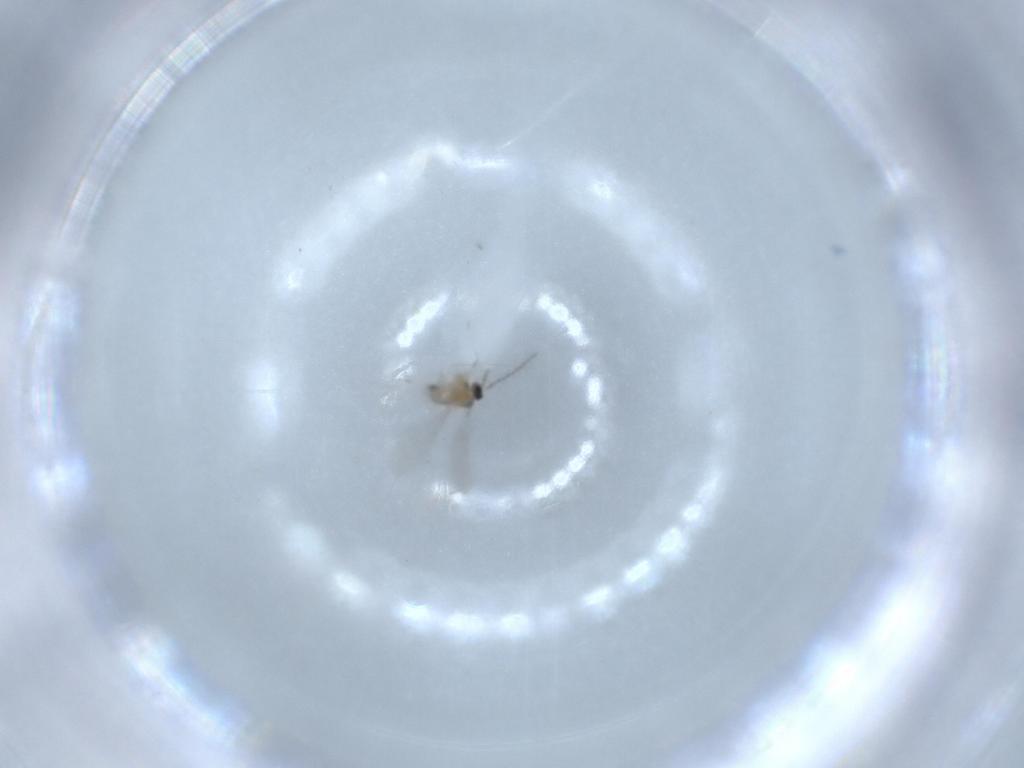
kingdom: Animalia
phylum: Arthropoda
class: Insecta
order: Diptera
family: Cecidomyiidae
